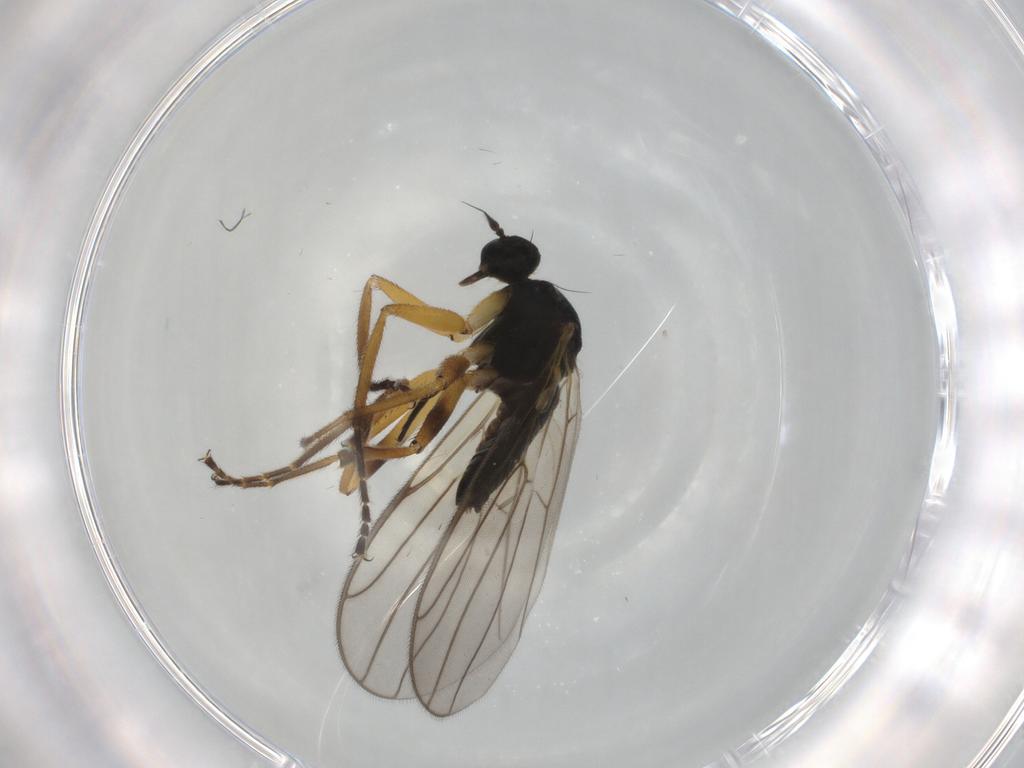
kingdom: Animalia
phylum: Arthropoda
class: Insecta
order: Diptera
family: Hybotidae
